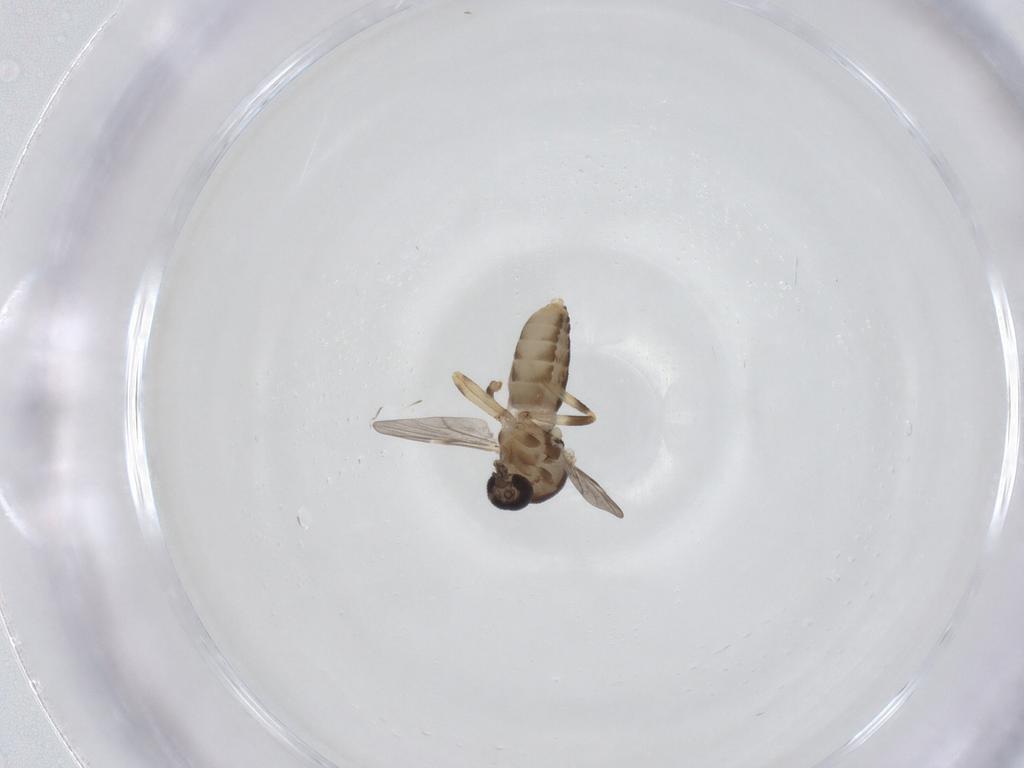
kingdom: Animalia
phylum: Arthropoda
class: Insecta
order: Diptera
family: Ceratopogonidae
